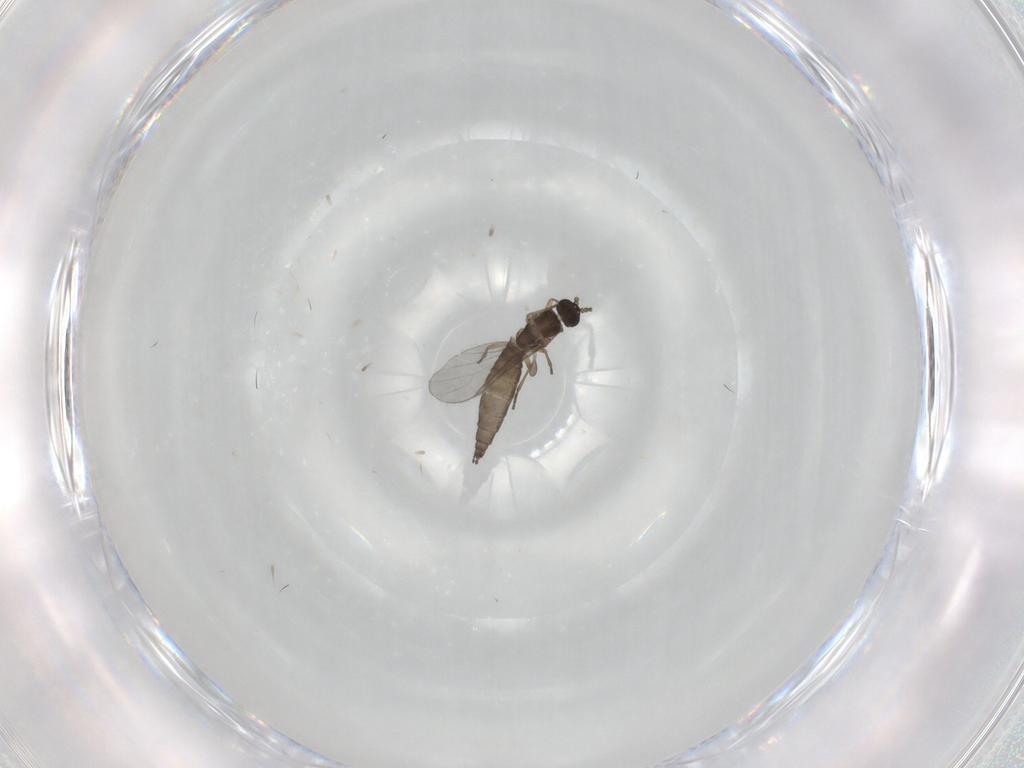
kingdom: Animalia
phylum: Arthropoda
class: Insecta
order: Diptera
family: Sciaridae
